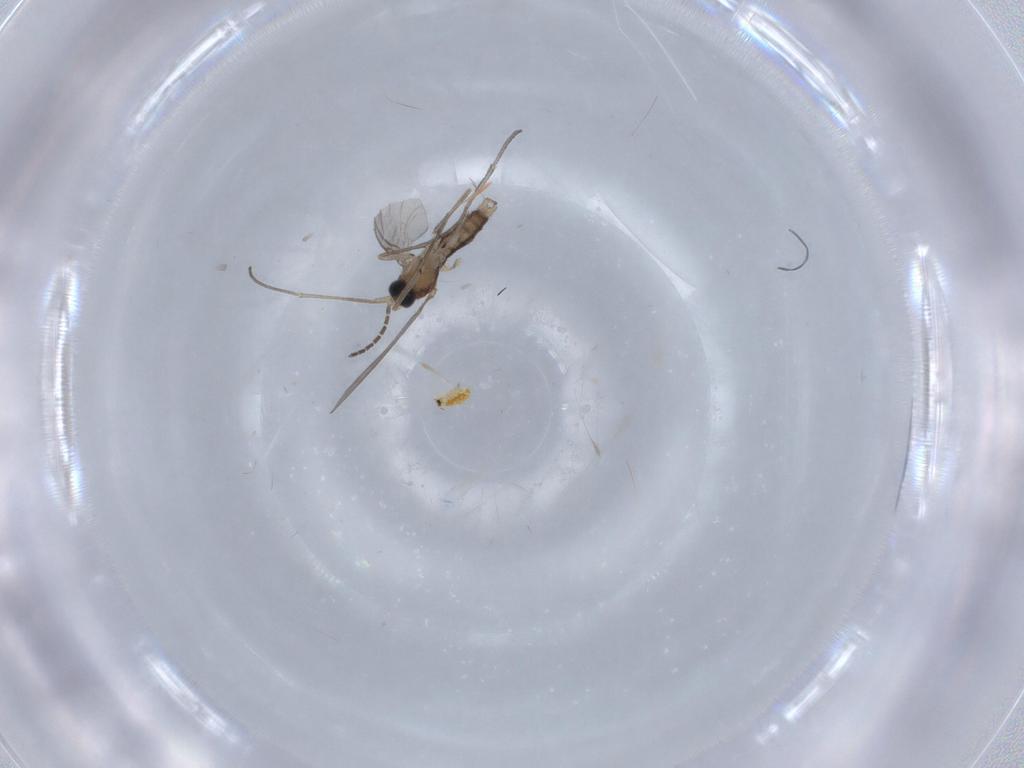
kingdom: Animalia
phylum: Arthropoda
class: Insecta
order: Diptera
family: Sciaridae
